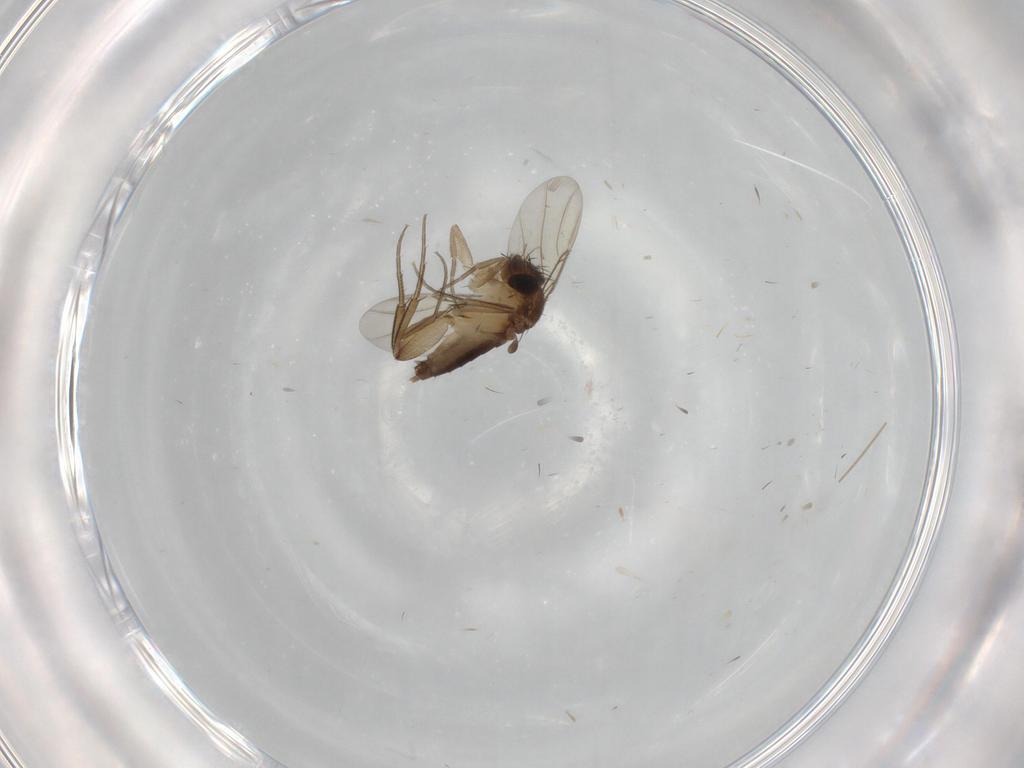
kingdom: Animalia
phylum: Arthropoda
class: Insecta
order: Diptera
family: Phoridae
